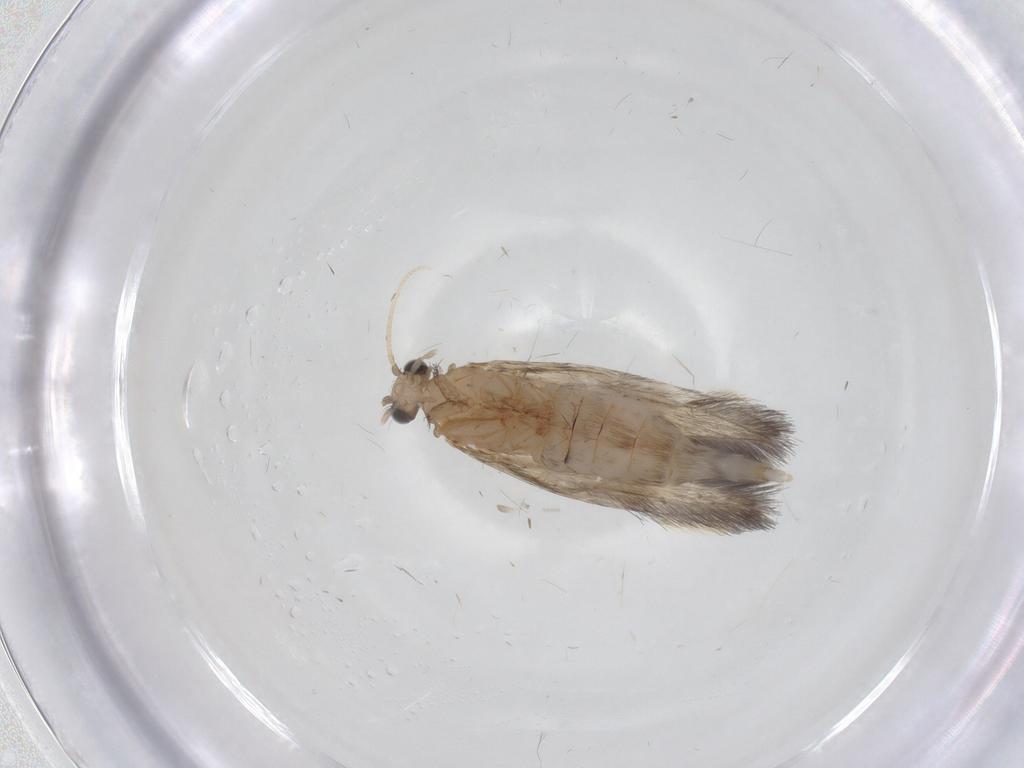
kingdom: Animalia
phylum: Arthropoda
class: Insecta
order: Trichoptera
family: Hydroptilidae
